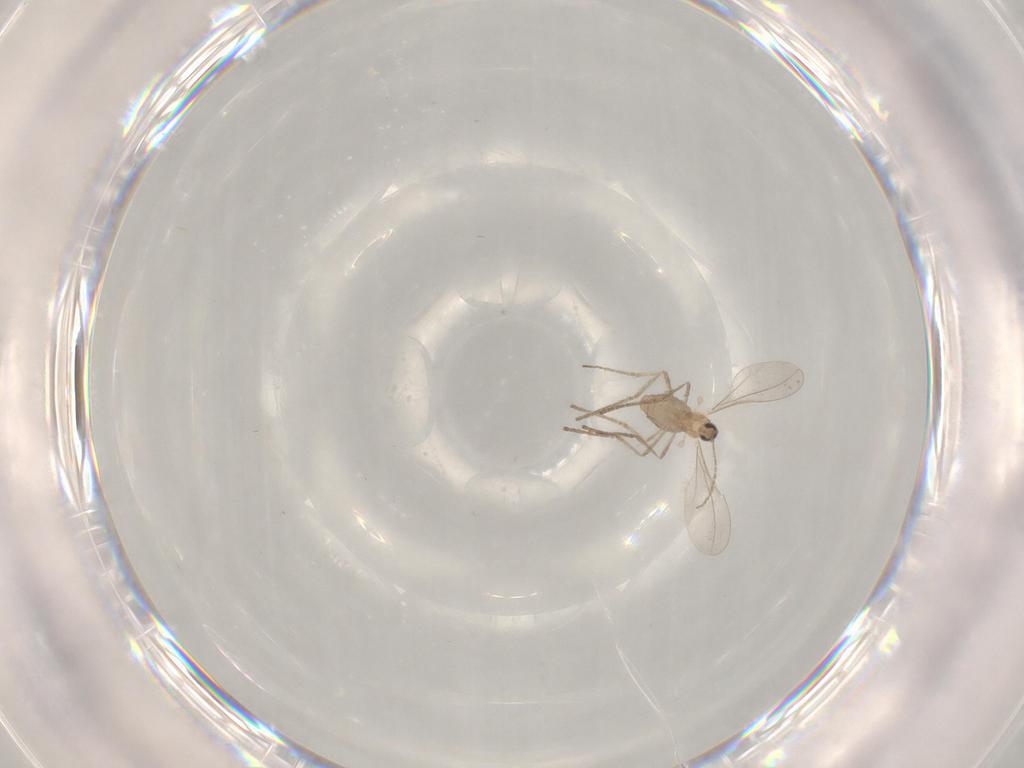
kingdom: Animalia
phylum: Arthropoda
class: Insecta
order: Diptera
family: Cecidomyiidae
